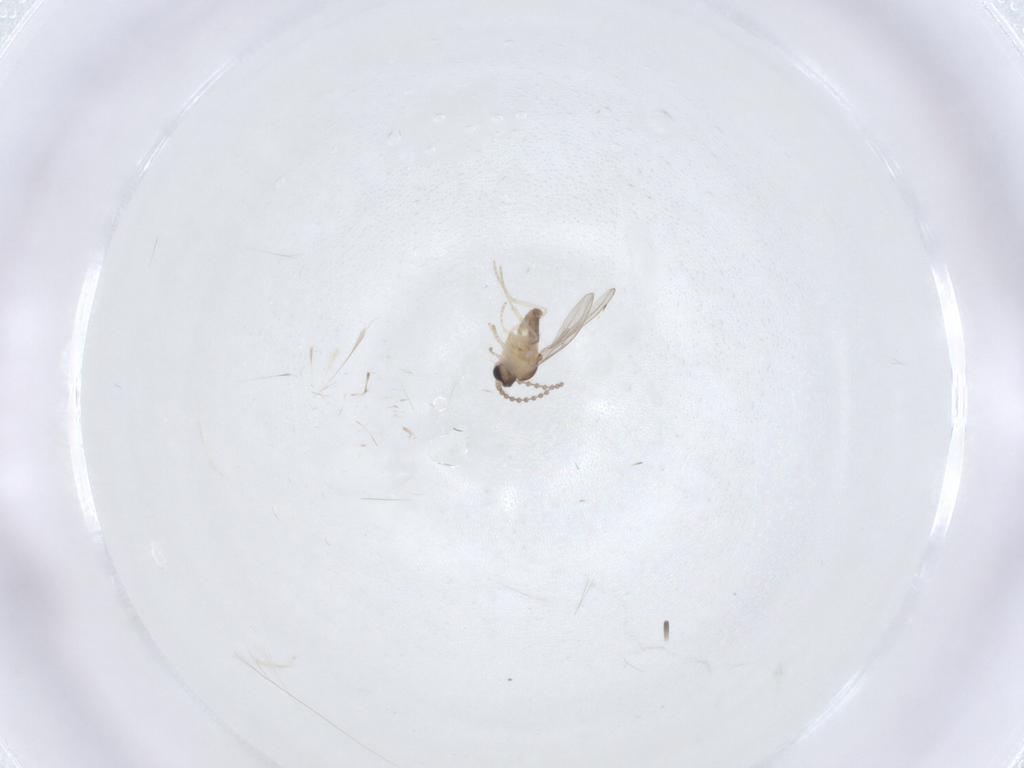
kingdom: Animalia
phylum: Arthropoda
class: Insecta
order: Diptera
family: Cecidomyiidae
